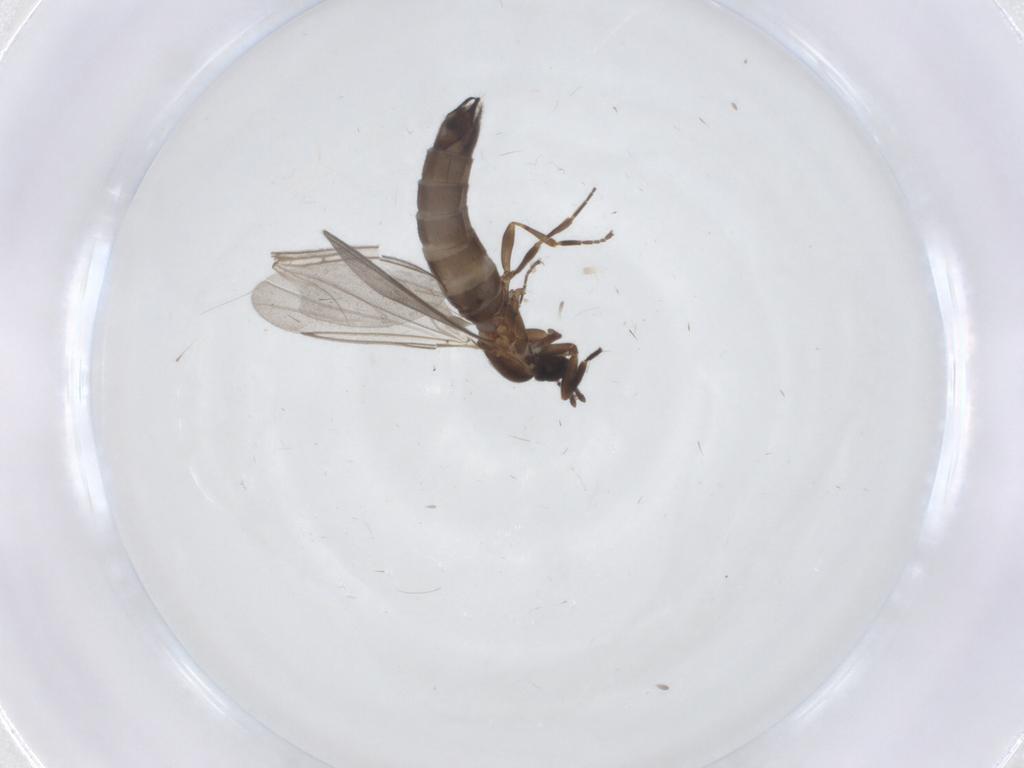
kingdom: Animalia
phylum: Arthropoda
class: Insecta
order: Diptera
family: Scatopsidae
